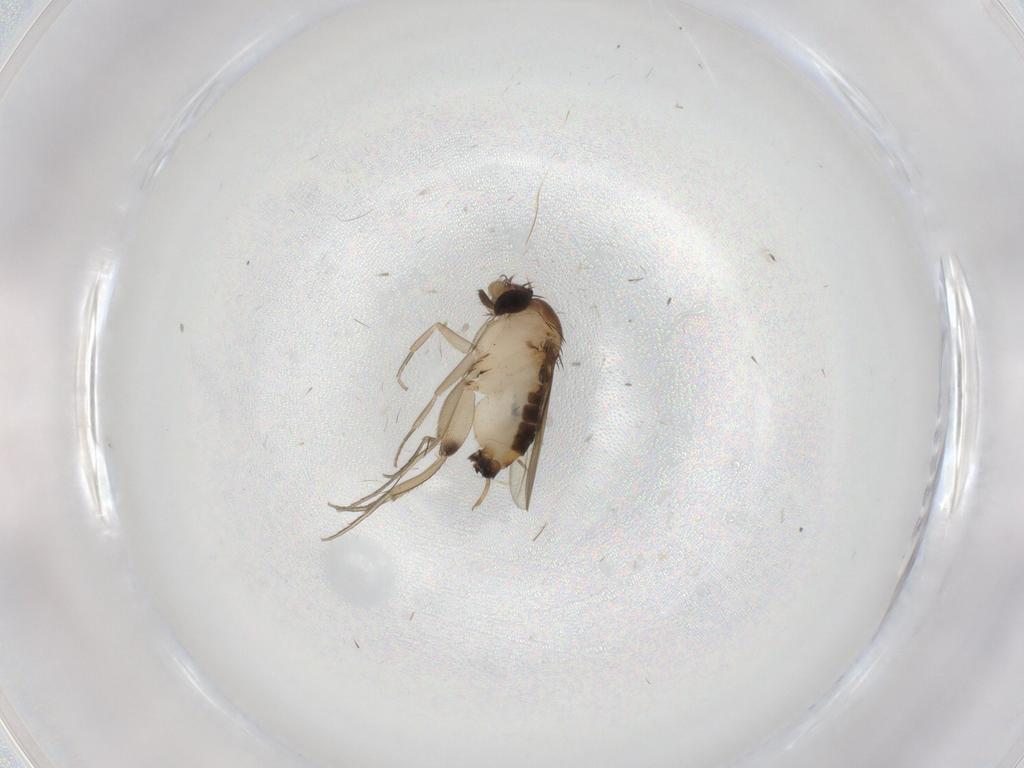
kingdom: Animalia
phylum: Arthropoda
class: Insecta
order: Diptera
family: Phoridae
